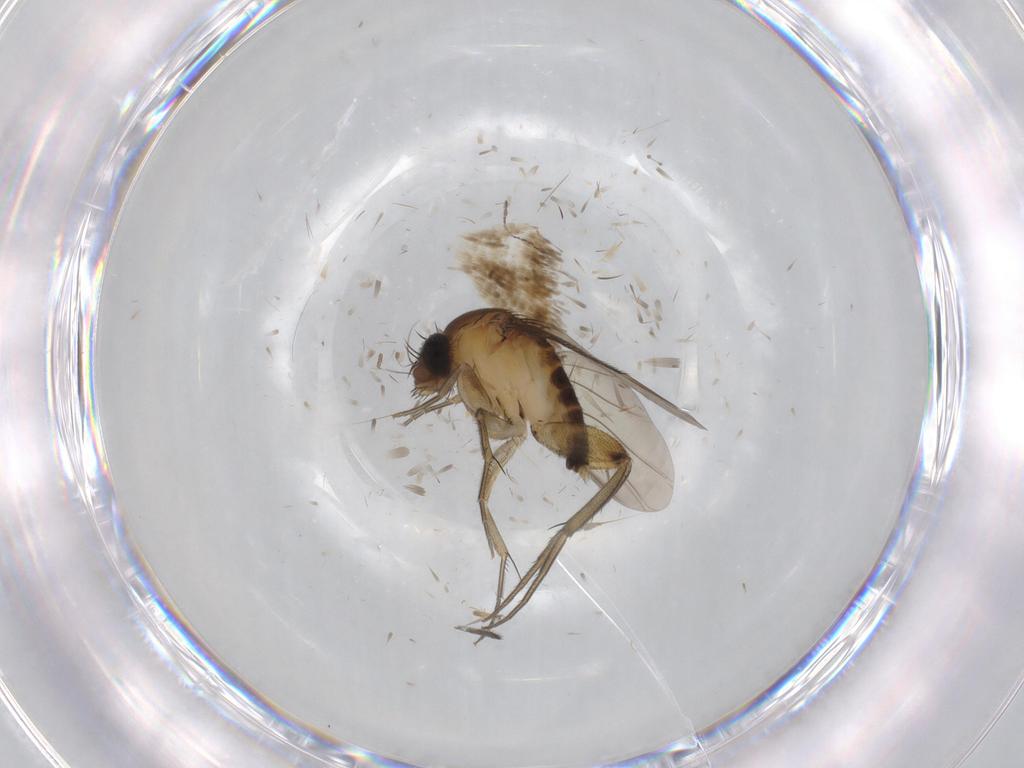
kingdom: Animalia
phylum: Arthropoda
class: Insecta
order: Diptera
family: Phoridae
